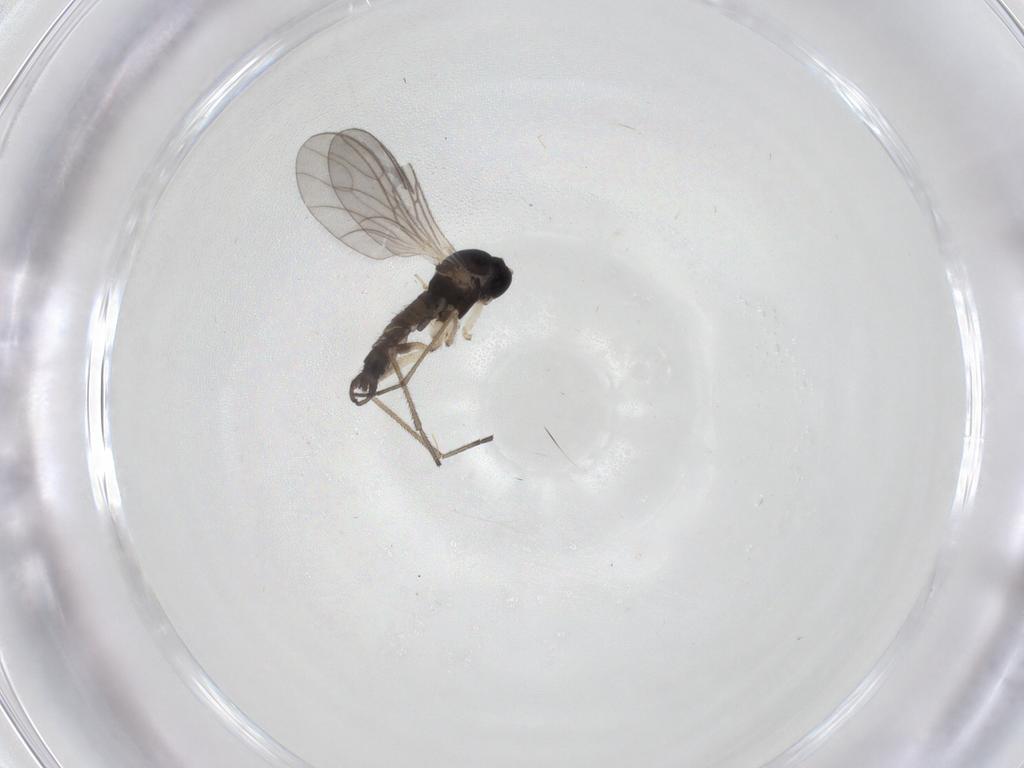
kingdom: Animalia
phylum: Arthropoda
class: Insecta
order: Diptera
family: Sciaridae
